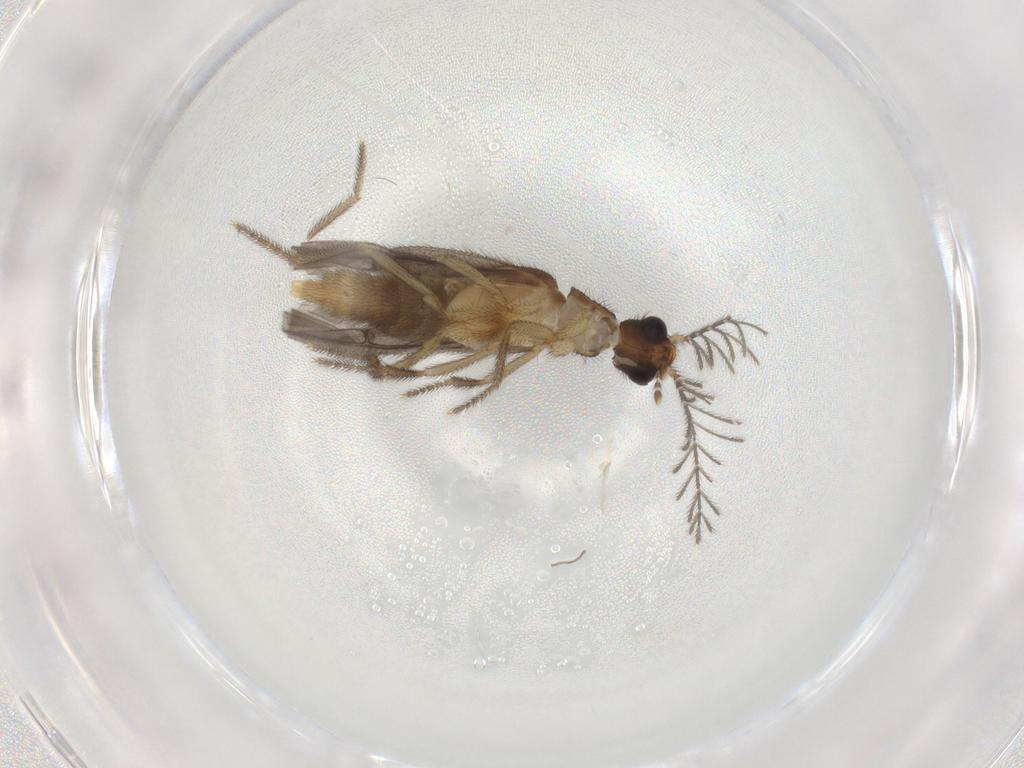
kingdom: Animalia
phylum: Arthropoda
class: Insecta
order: Coleoptera
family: Phengodidae
